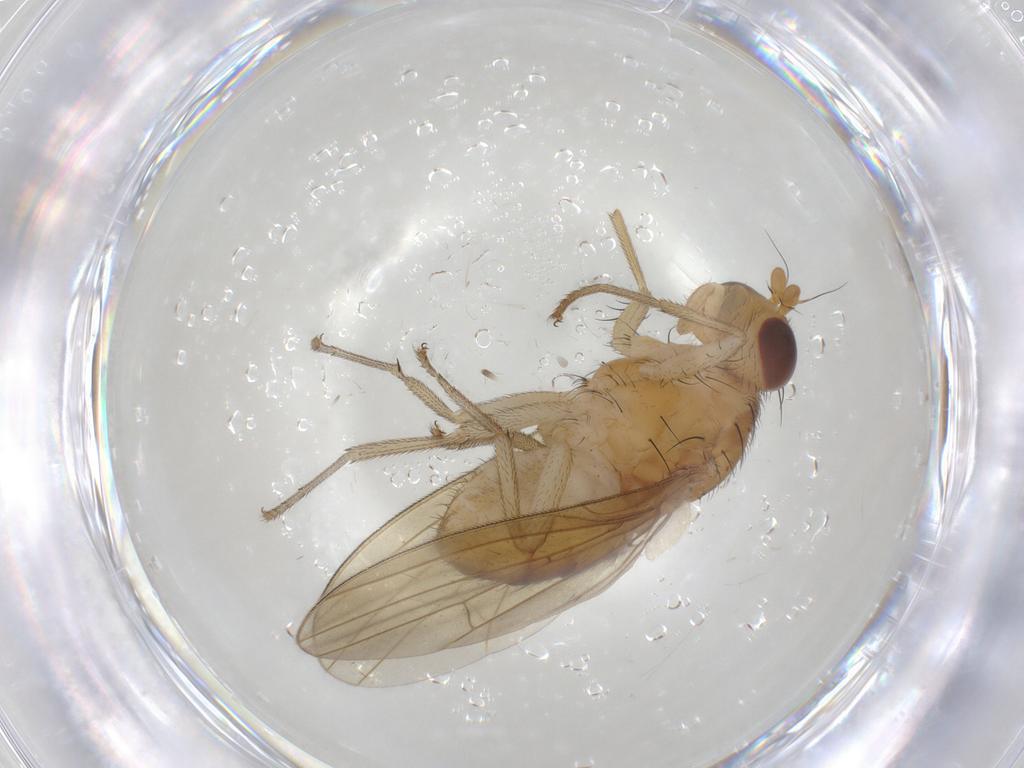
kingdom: Animalia
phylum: Arthropoda
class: Insecta
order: Diptera
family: Lauxaniidae
